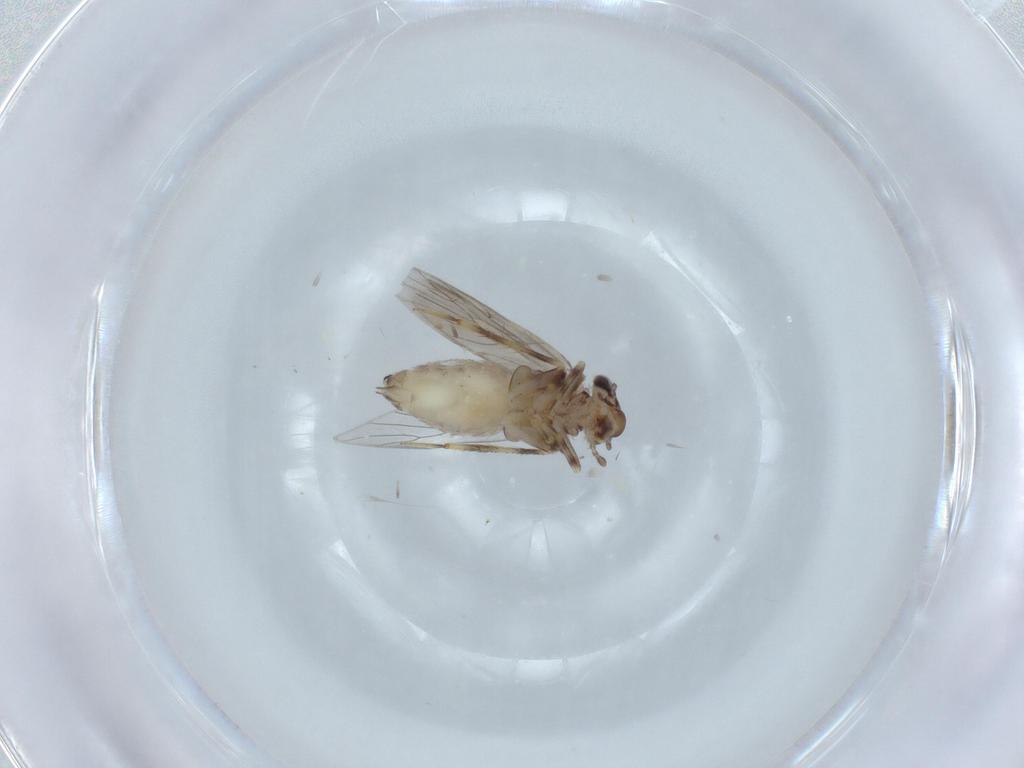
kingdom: Animalia
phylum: Arthropoda
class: Insecta
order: Psocodea
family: Lepidopsocidae
